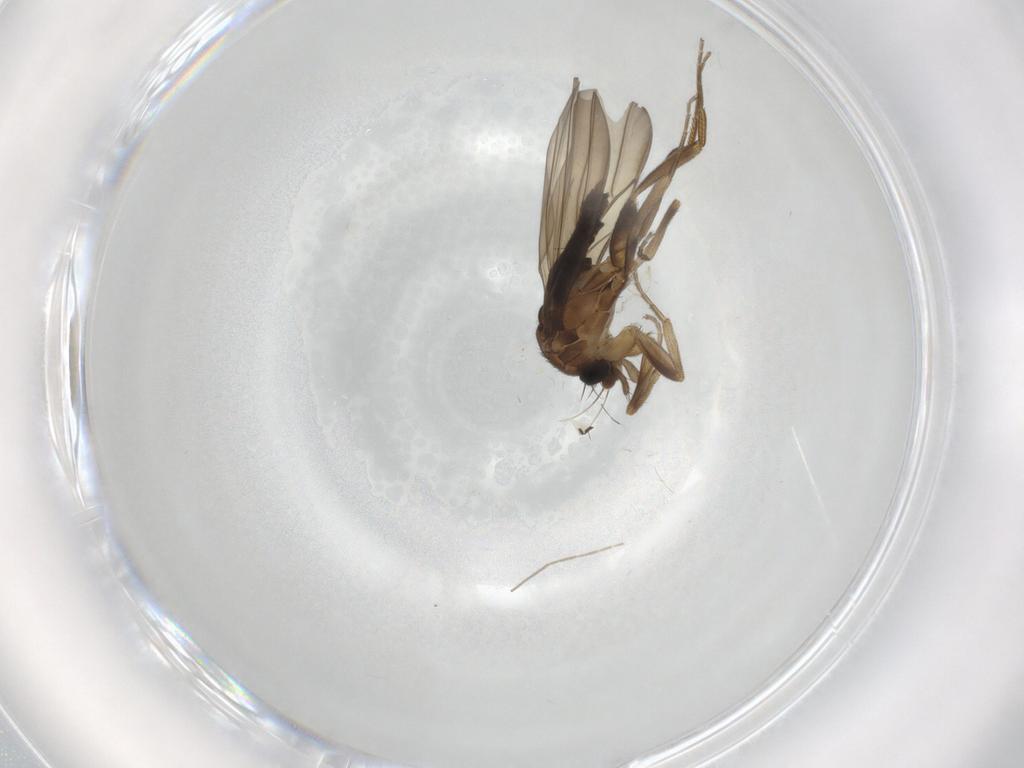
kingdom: Animalia
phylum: Arthropoda
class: Insecta
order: Diptera
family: Phoridae
